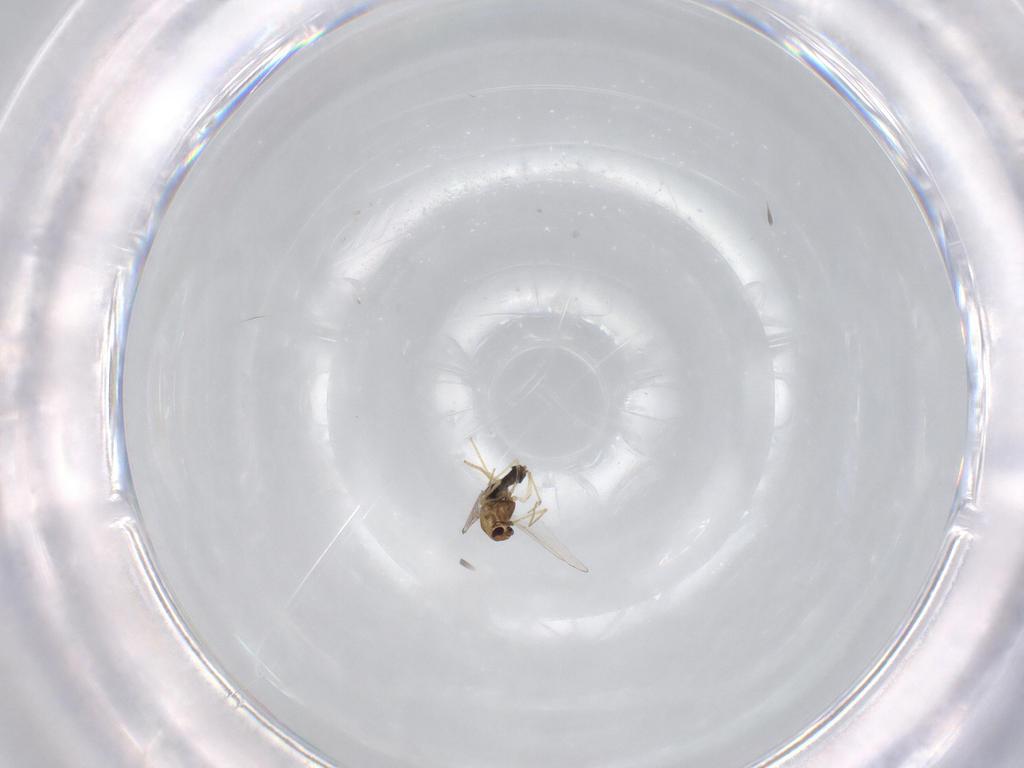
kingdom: Animalia
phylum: Arthropoda
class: Insecta
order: Diptera
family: Chironomidae
